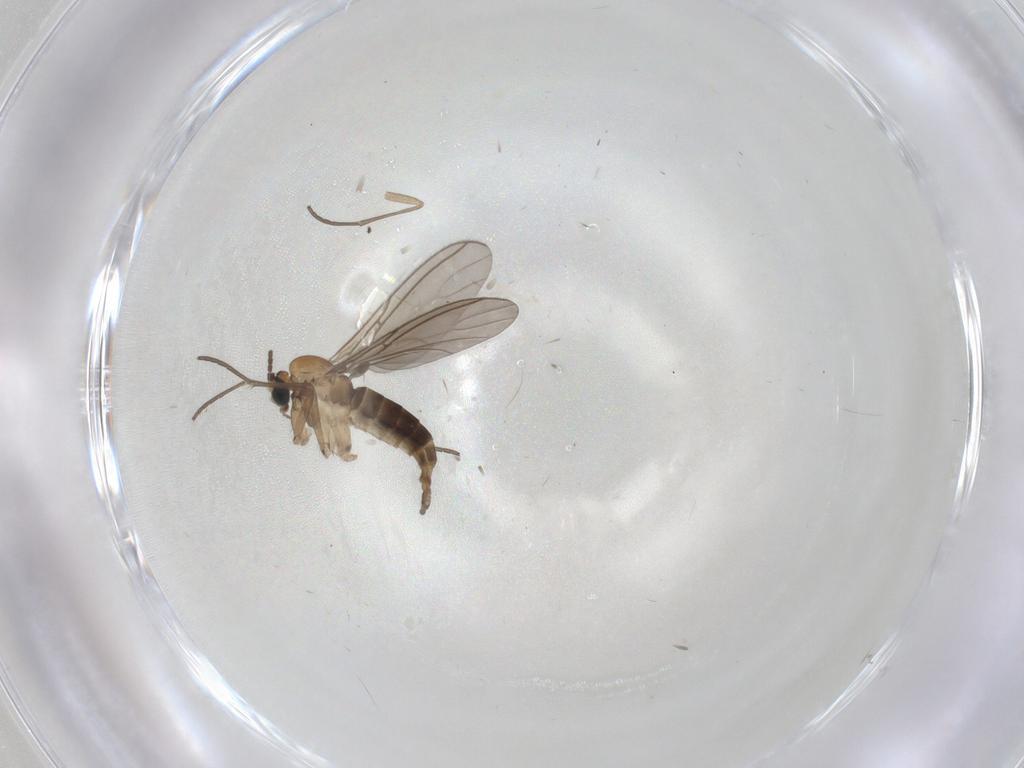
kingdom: Animalia
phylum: Arthropoda
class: Insecta
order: Diptera
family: Sciaridae
